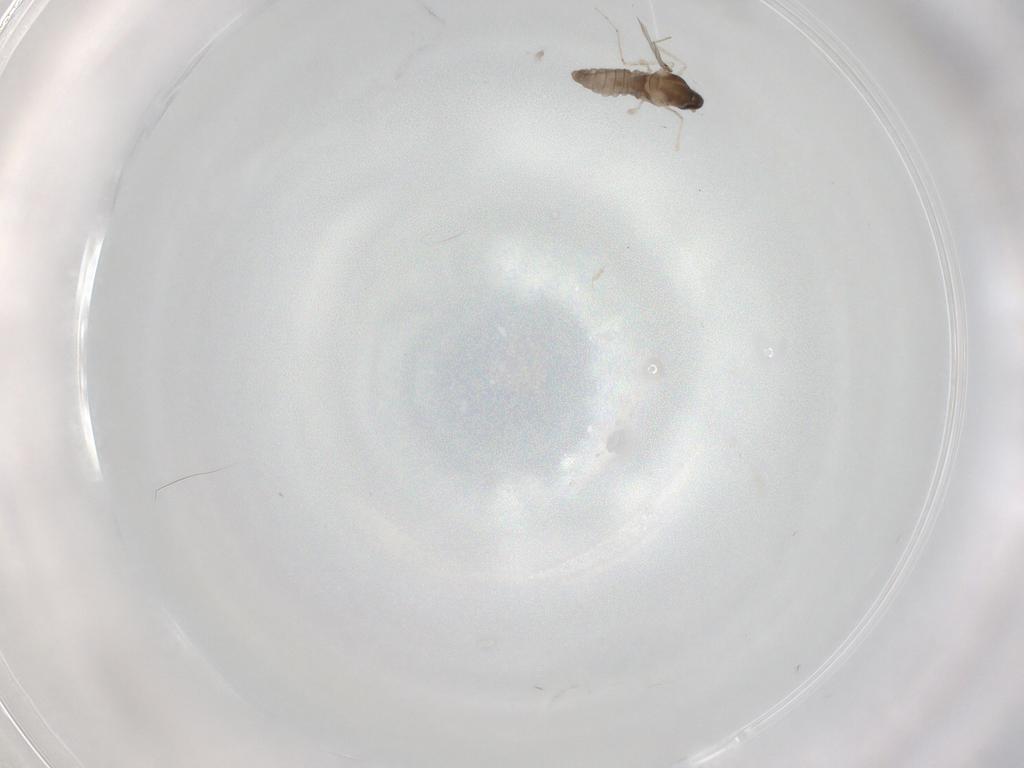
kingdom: Animalia
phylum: Arthropoda
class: Insecta
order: Diptera
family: Ceratopogonidae
